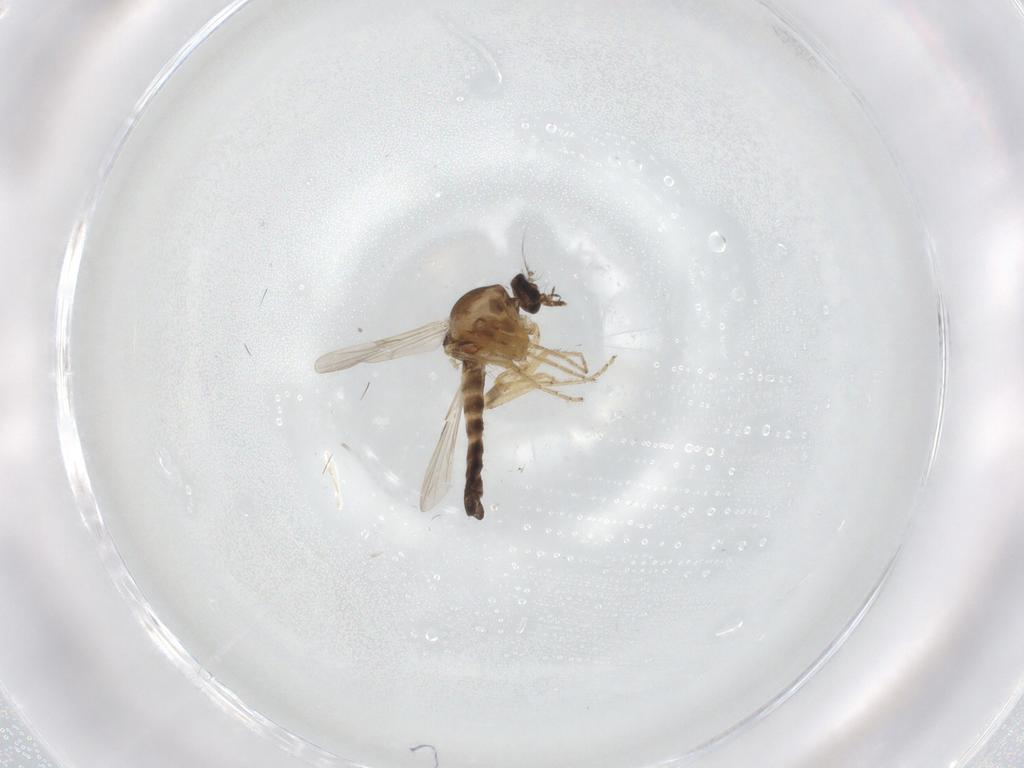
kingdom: Animalia
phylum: Arthropoda
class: Insecta
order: Diptera
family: Ceratopogonidae
